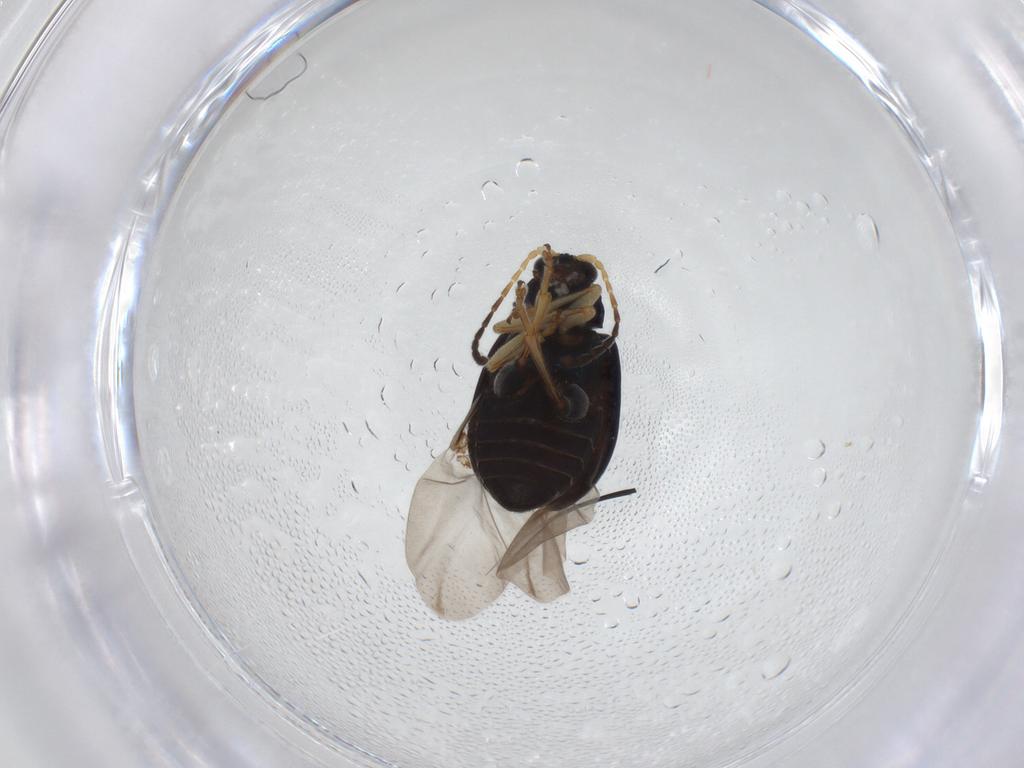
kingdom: Animalia
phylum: Arthropoda
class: Insecta
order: Coleoptera
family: Chrysomelidae
